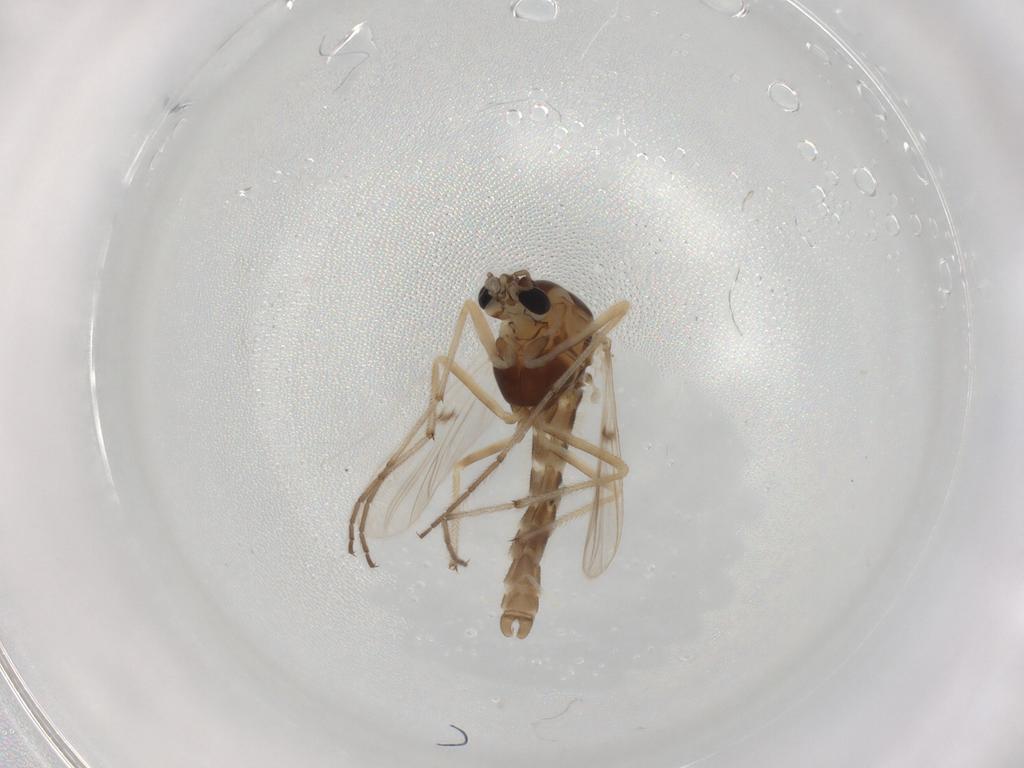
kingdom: Animalia
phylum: Arthropoda
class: Insecta
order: Diptera
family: Chironomidae
